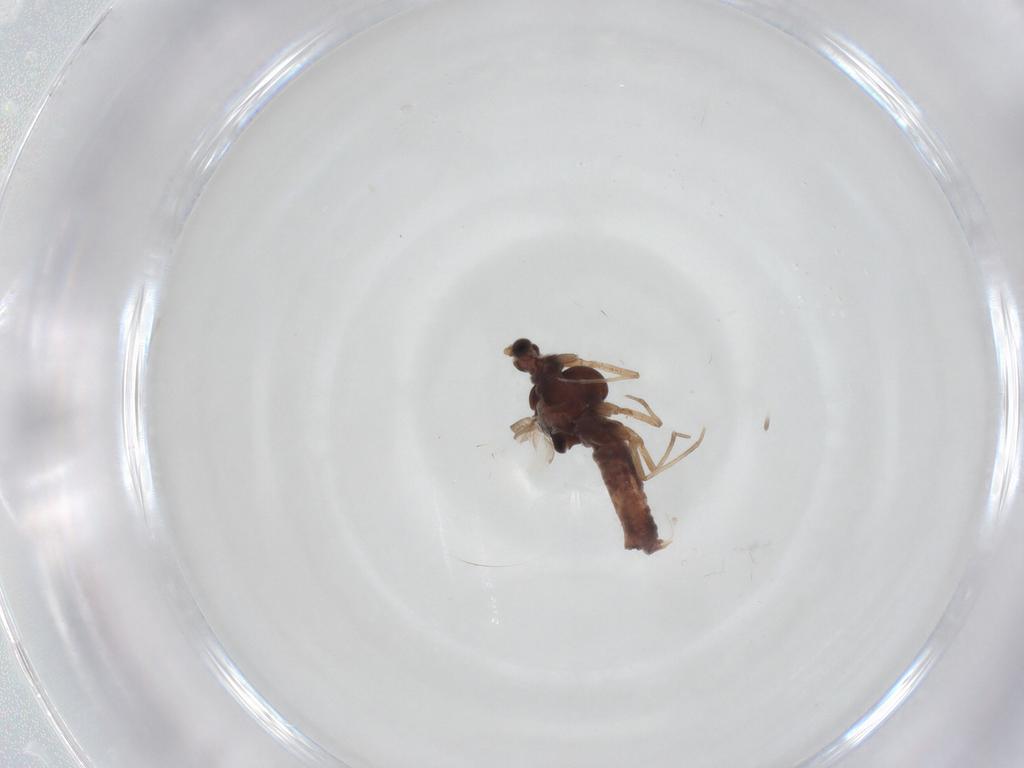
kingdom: Animalia
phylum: Arthropoda
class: Insecta
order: Diptera
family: Anthomyiidae
